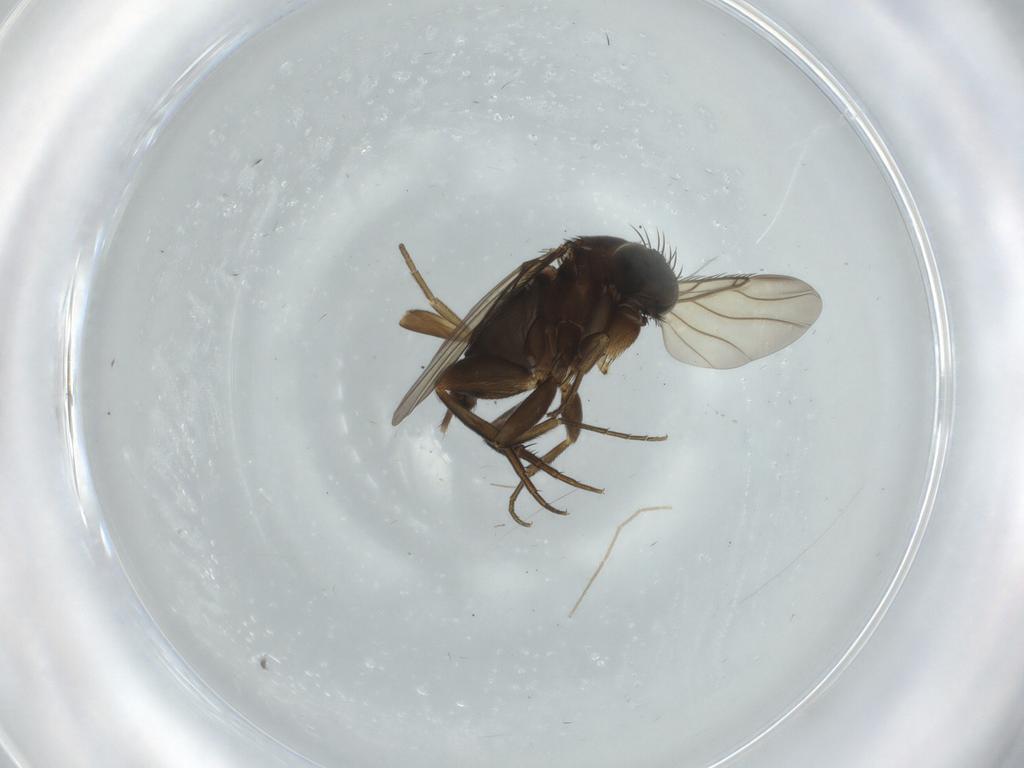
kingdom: Animalia
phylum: Arthropoda
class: Insecta
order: Diptera
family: Phoridae
